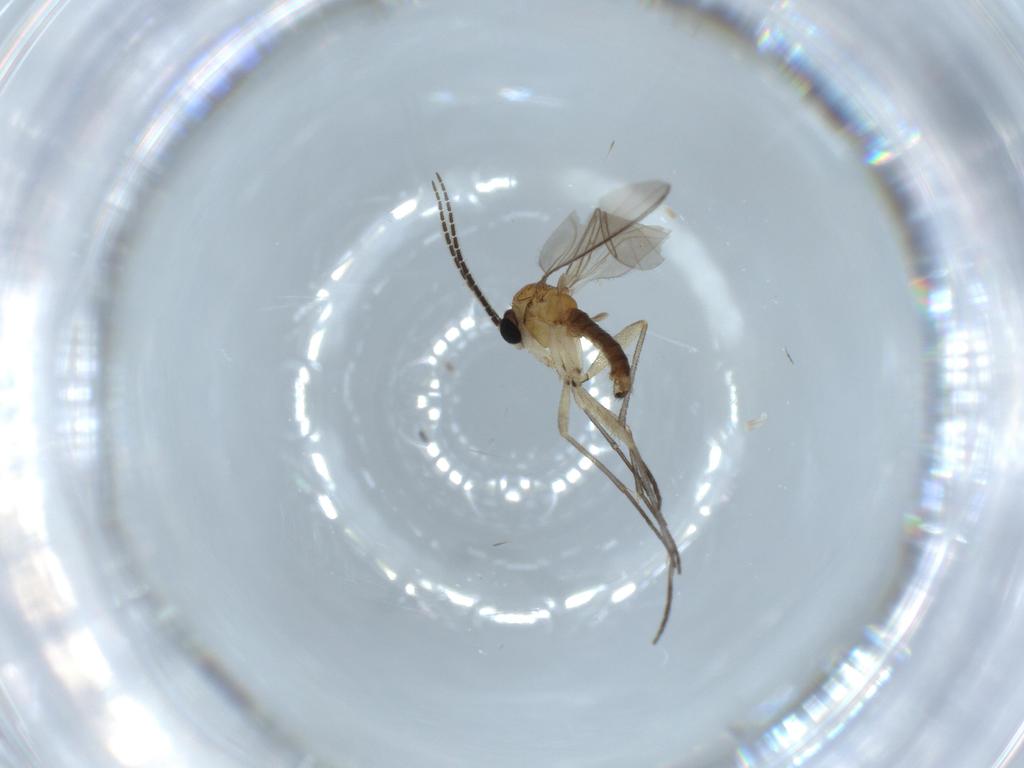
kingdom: Animalia
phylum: Arthropoda
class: Insecta
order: Diptera
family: Sciaridae
